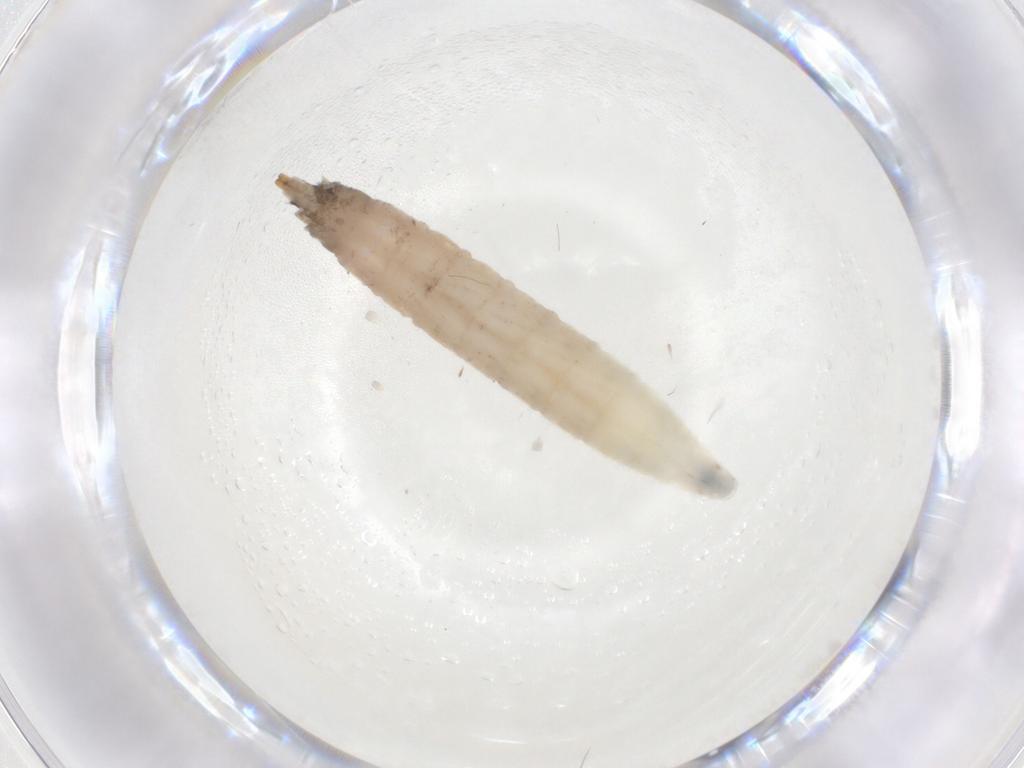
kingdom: Animalia
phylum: Arthropoda
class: Insecta
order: Diptera
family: Drosophilidae
